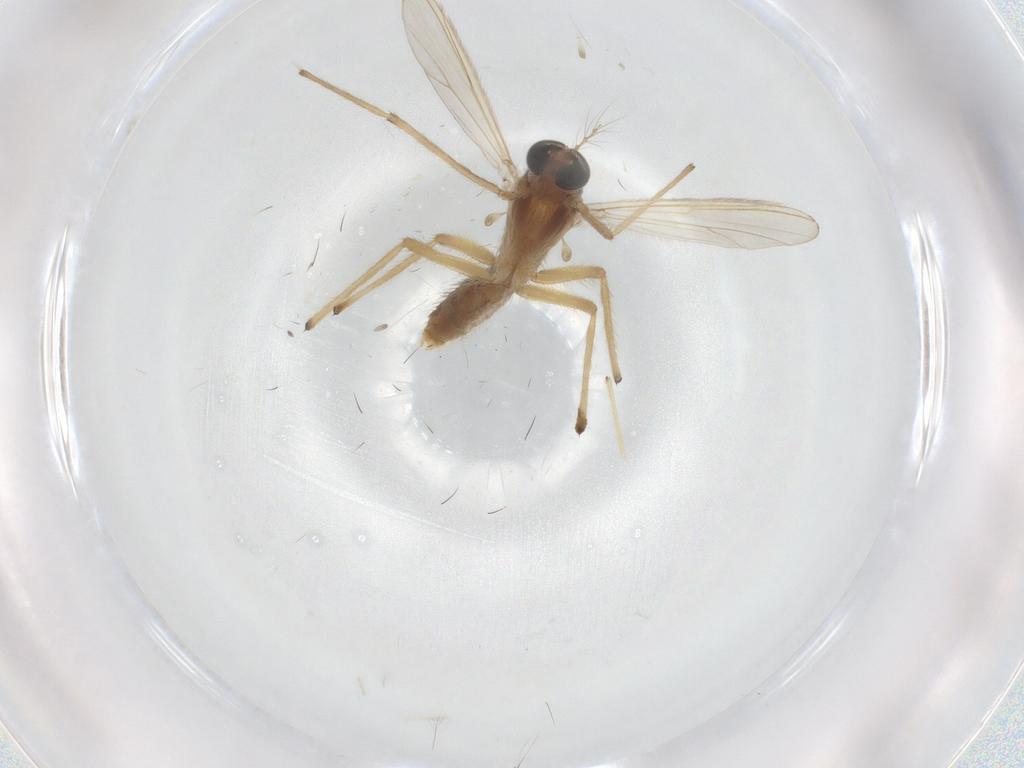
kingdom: Animalia
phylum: Arthropoda
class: Insecta
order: Diptera
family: Chironomidae
